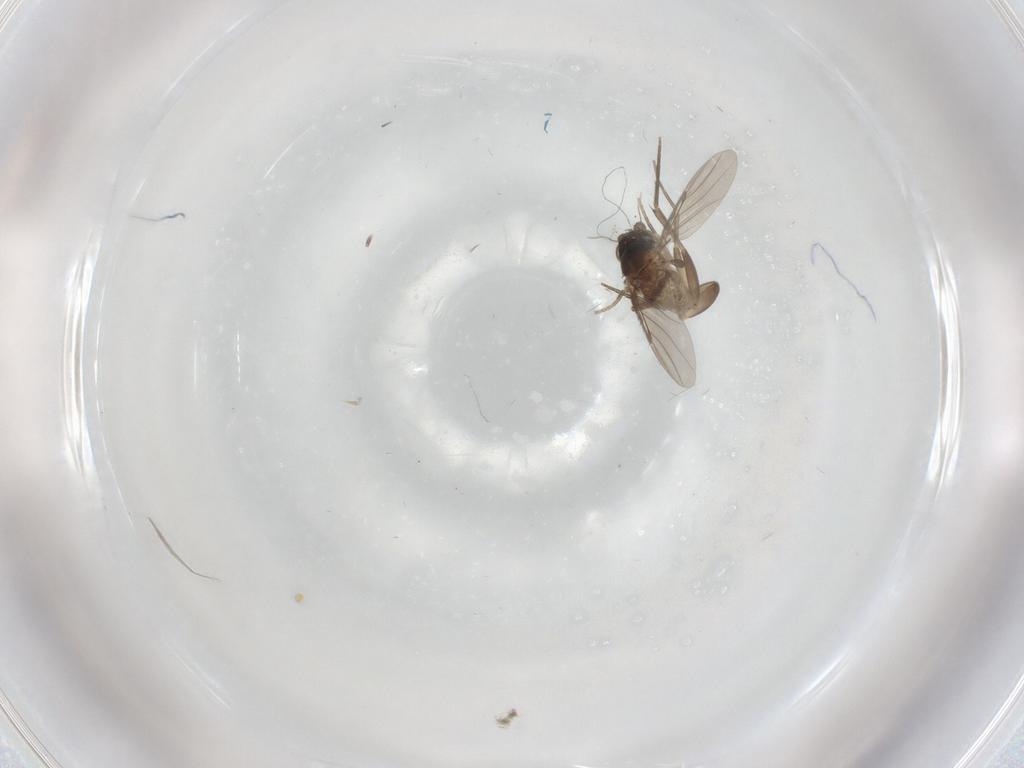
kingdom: Animalia
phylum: Arthropoda
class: Insecta
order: Diptera
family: Phoridae
